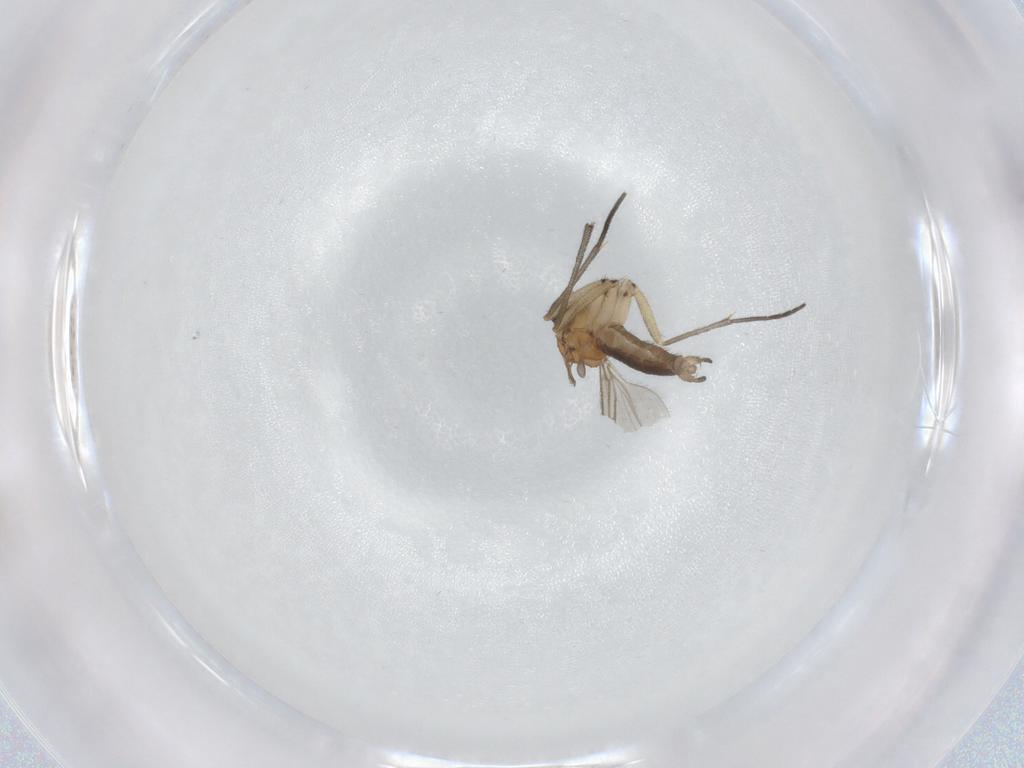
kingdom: Animalia
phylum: Arthropoda
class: Insecta
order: Diptera
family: Sciaridae
